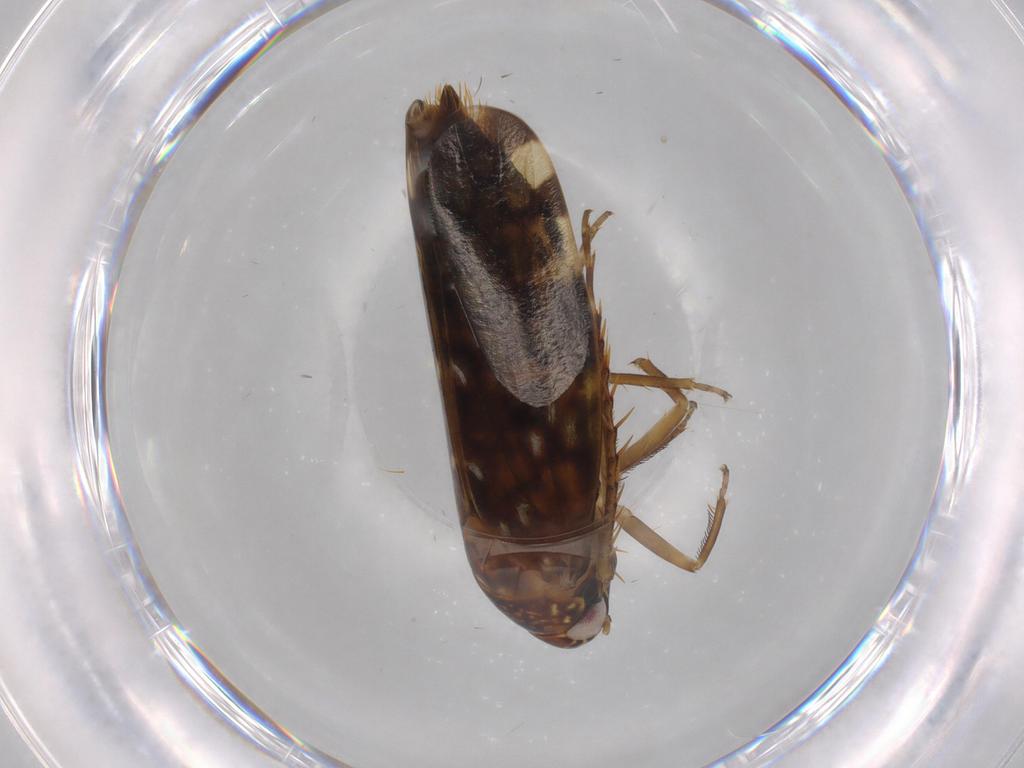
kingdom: Animalia
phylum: Arthropoda
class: Insecta
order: Hemiptera
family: Cicadellidae
